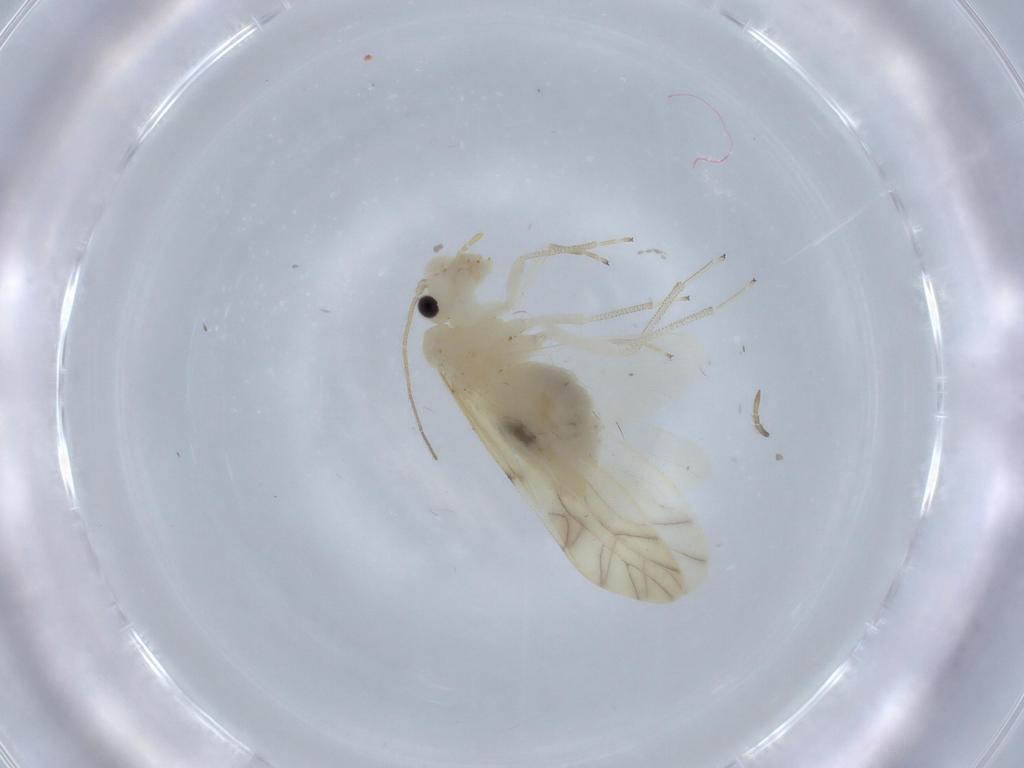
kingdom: Animalia
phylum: Arthropoda
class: Insecta
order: Psocodea
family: Caeciliusidae
